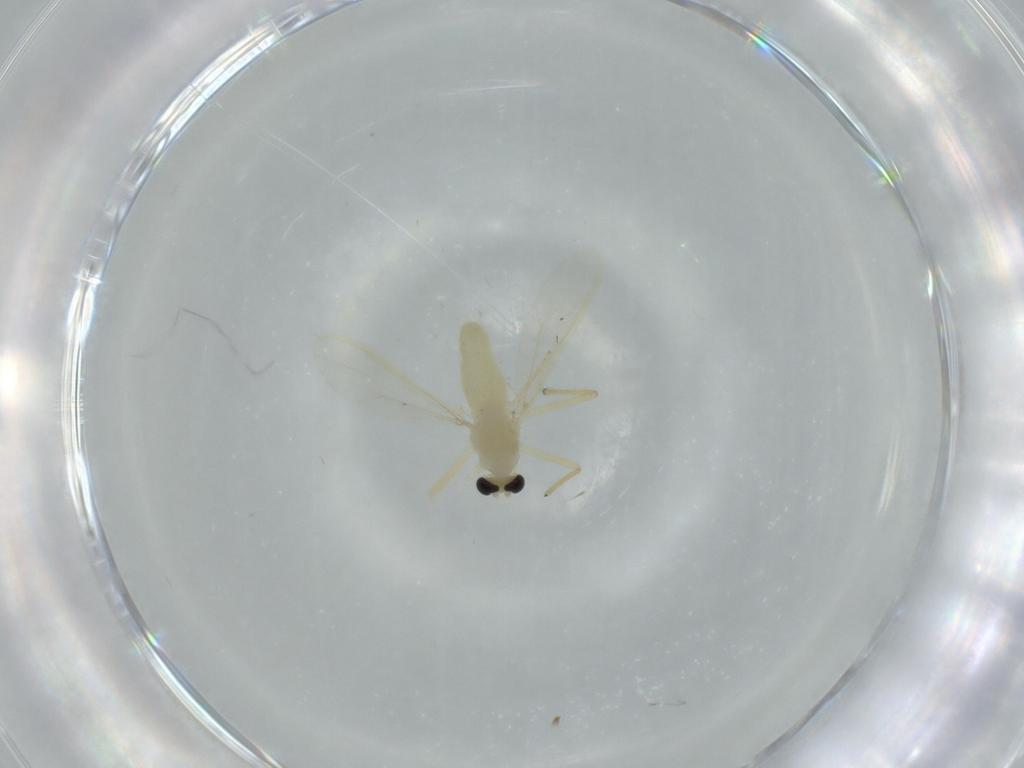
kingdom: Animalia
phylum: Arthropoda
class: Insecta
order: Diptera
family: Chironomidae
